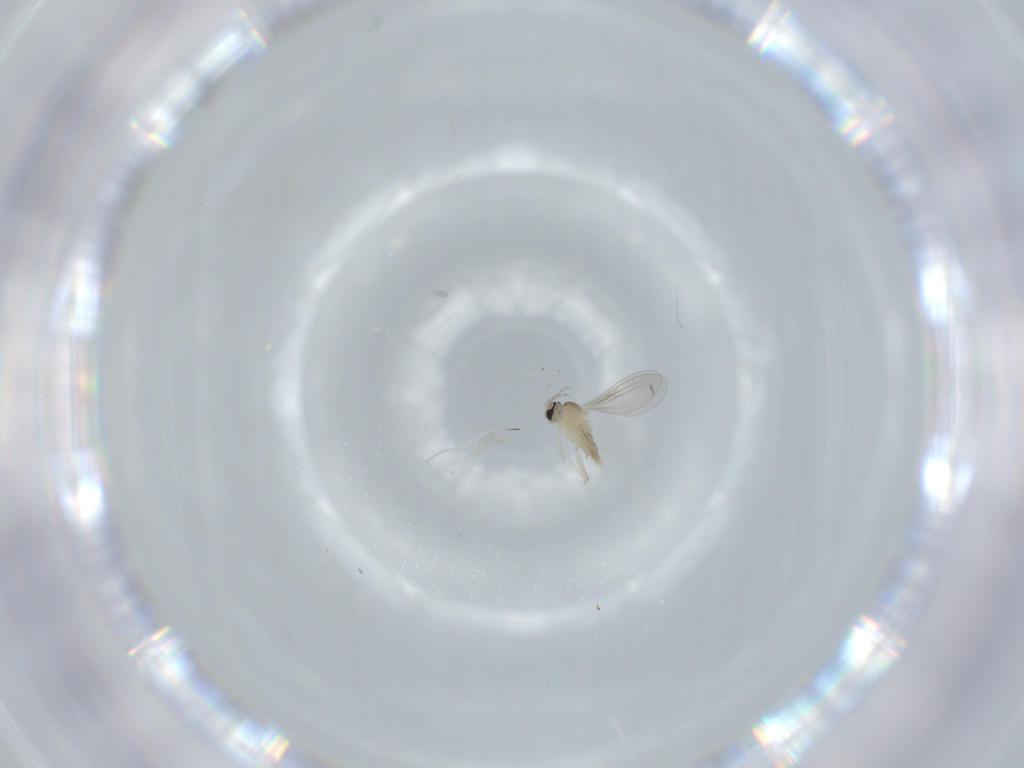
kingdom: Animalia
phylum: Arthropoda
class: Insecta
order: Diptera
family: Cecidomyiidae
